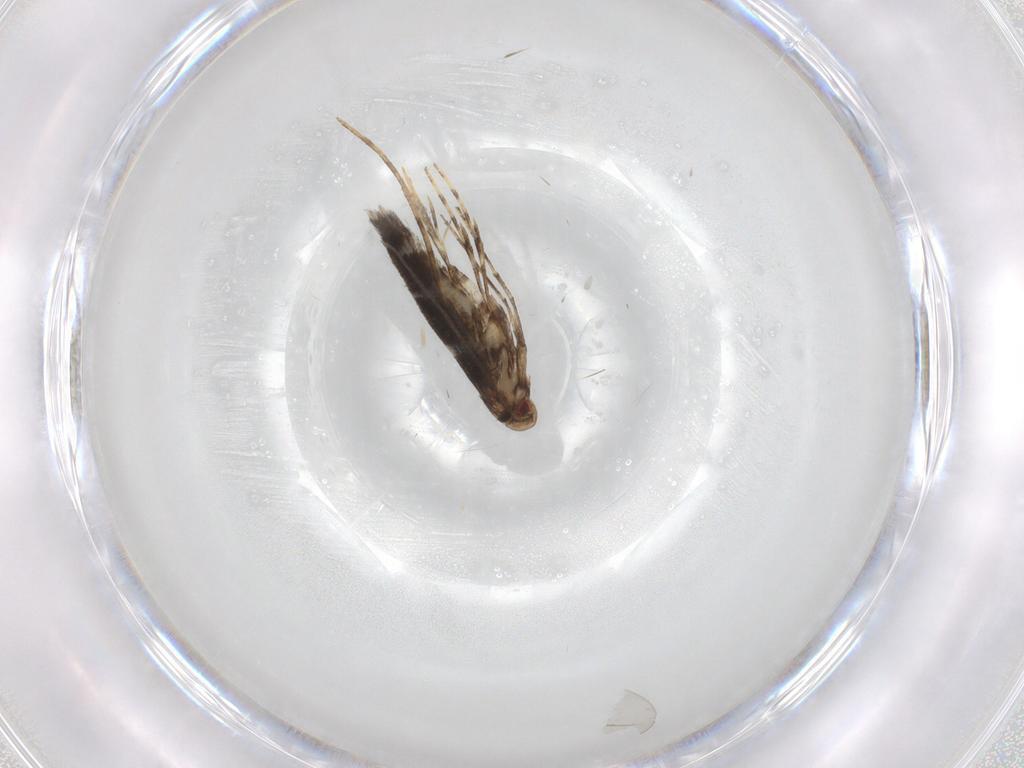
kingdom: Animalia
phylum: Arthropoda
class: Insecta
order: Lepidoptera
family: Gracillariidae
